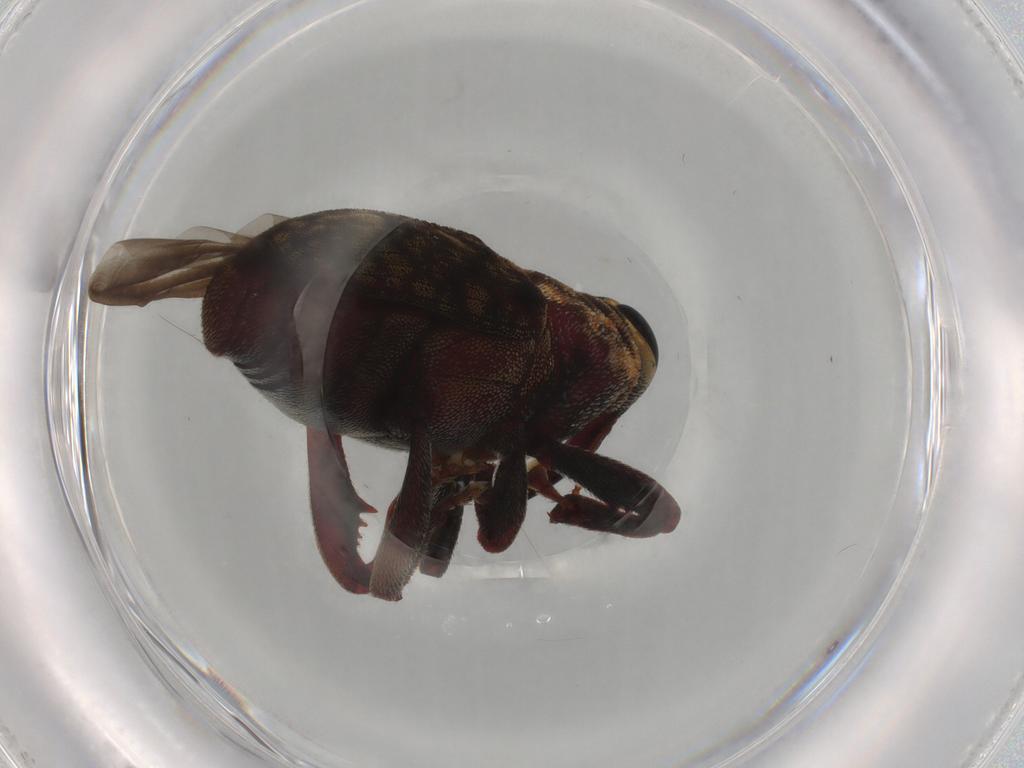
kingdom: Animalia
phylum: Arthropoda
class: Insecta
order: Coleoptera
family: Curculionidae
